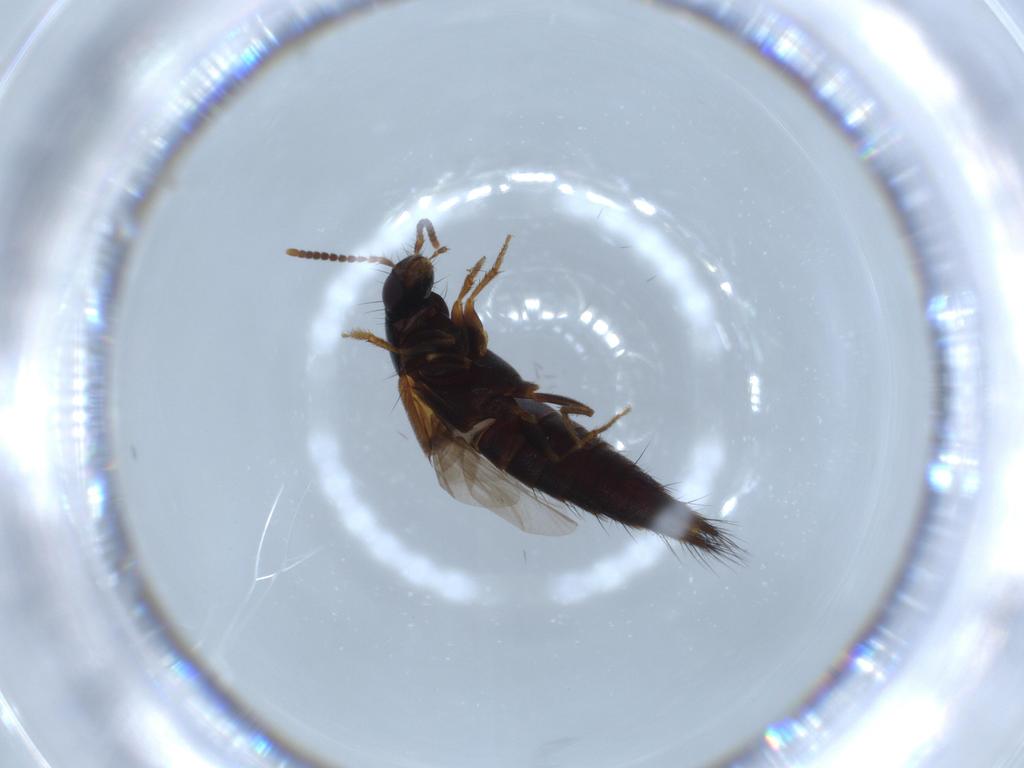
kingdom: Animalia
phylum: Arthropoda
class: Insecta
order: Coleoptera
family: Staphylinidae
